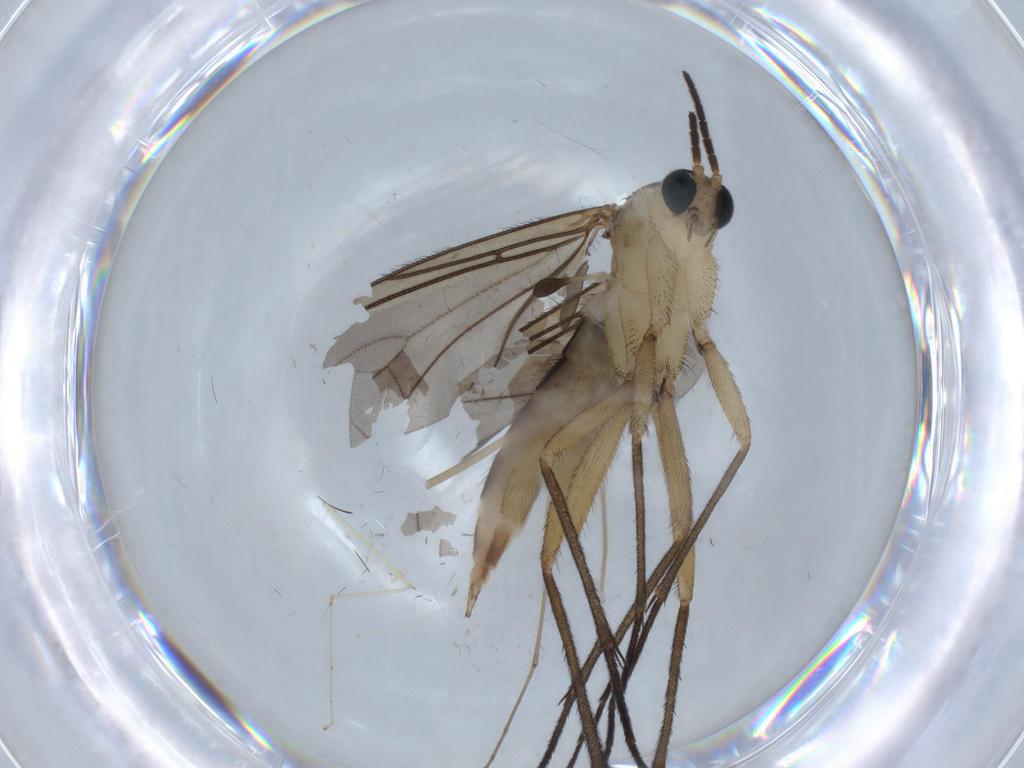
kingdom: Animalia
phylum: Arthropoda
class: Insecta
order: Diptera
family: Sciaridae
